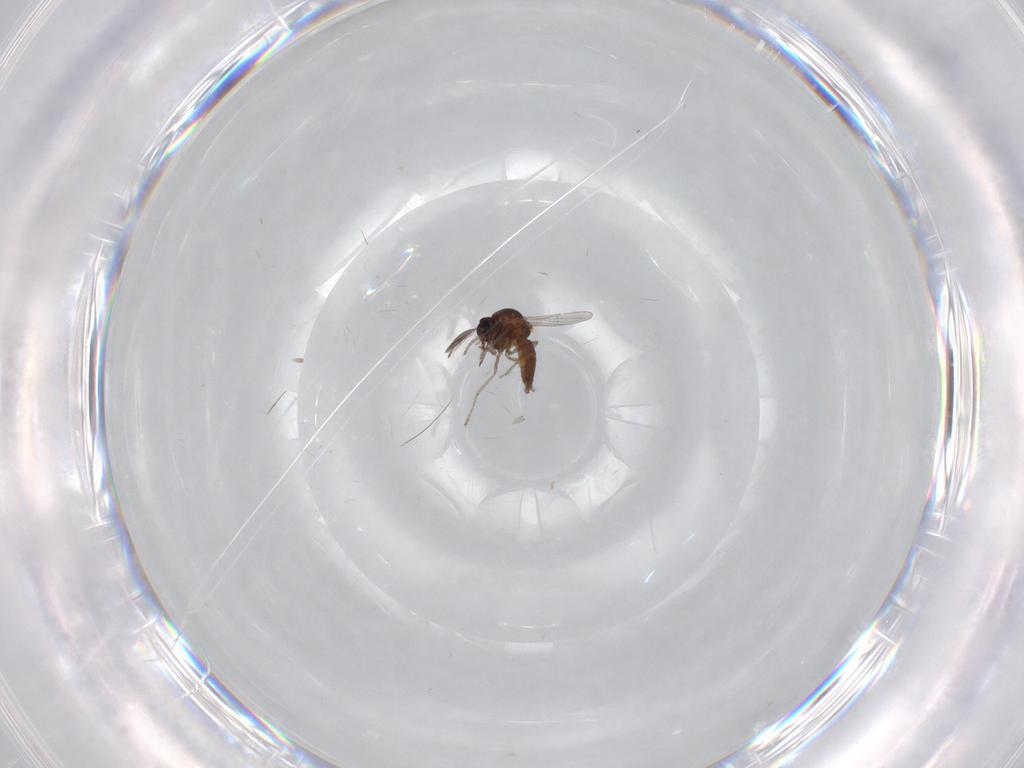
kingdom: Animalia
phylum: Arthropoda
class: Insecta
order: Diptera
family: Ceratopogonidae
